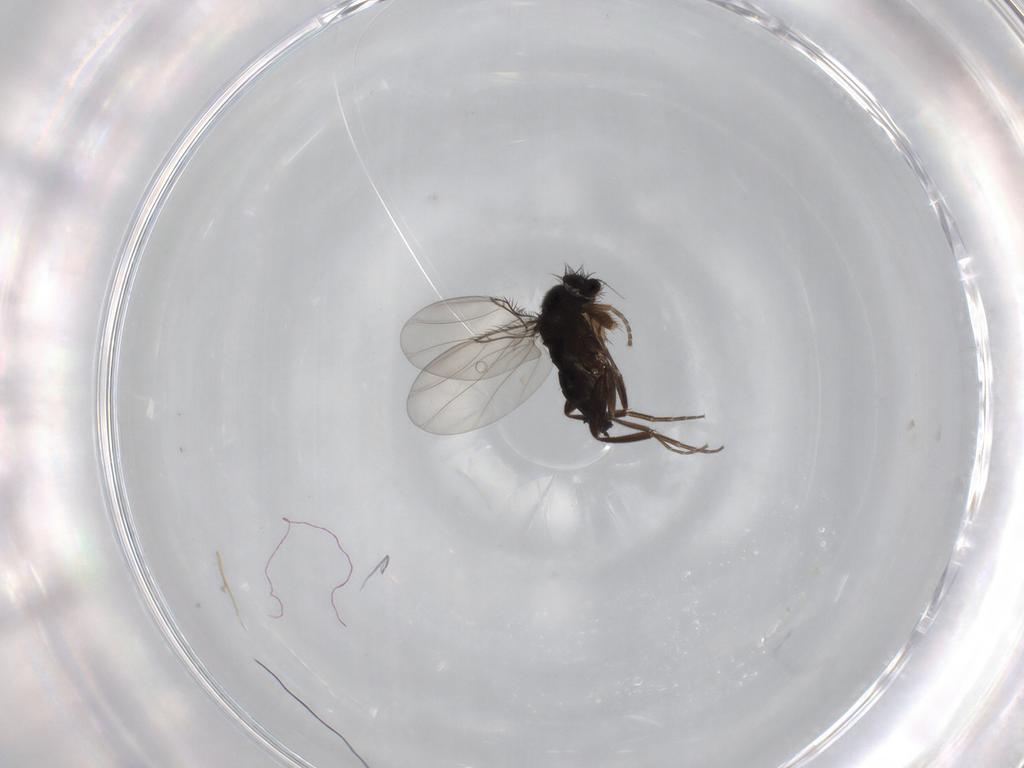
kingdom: Animalia
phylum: Arthropoda
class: Insecta
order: Diptera
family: Phoridae
